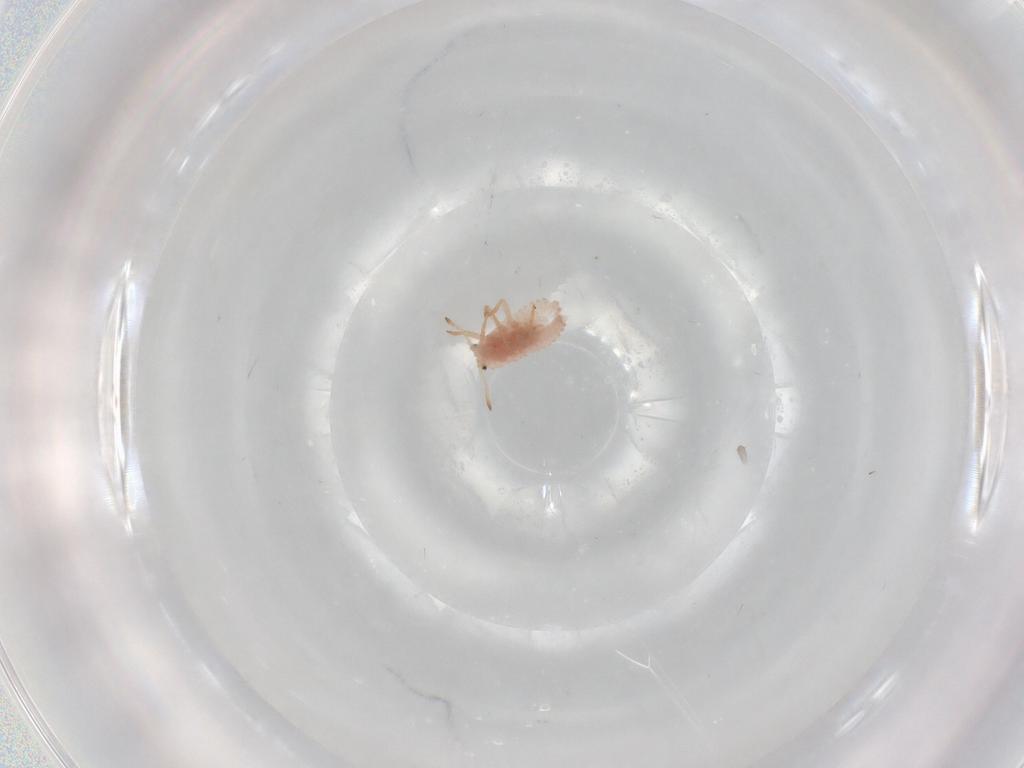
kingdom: Animalia
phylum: Arthropoda
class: Insecta
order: Hemiptera
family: Coccoidea_incertae_sedis
